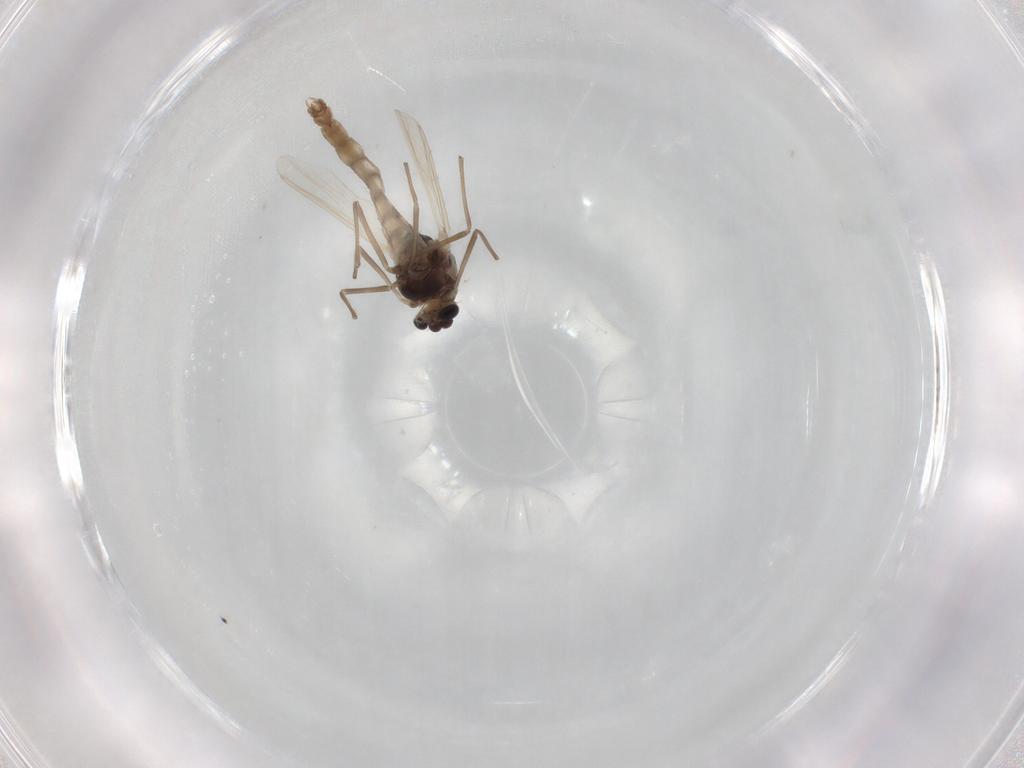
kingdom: Animalia
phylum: Arthropoda
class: Insecta
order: Diptera
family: Chironomidae
